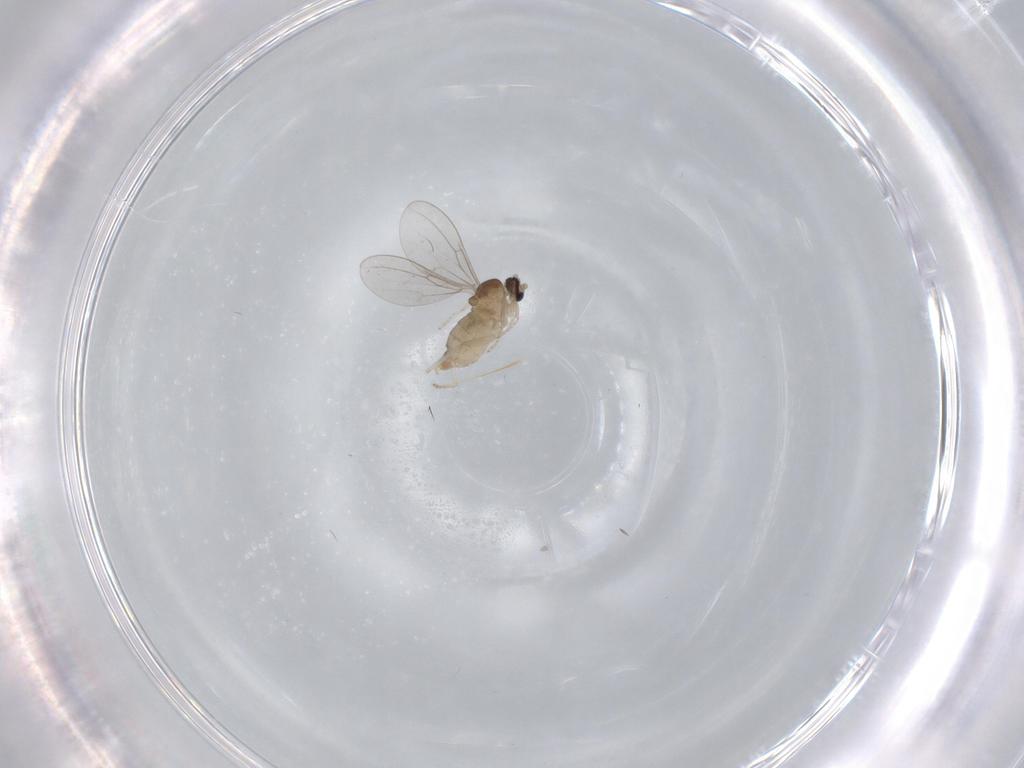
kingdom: Animalia
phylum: Arthropoda
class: Insecta
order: Diptera
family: Cecidomyiidae
